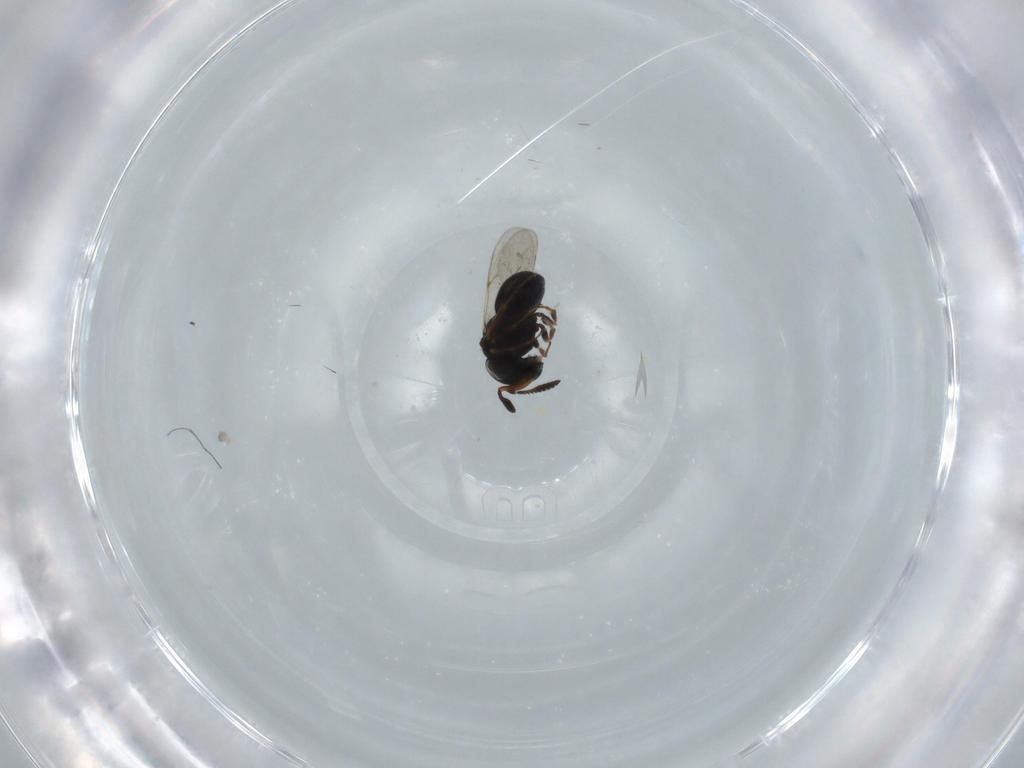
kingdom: Animalia
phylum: Arthropoda
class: Insecta
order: Hymenoptera
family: Scelionidae
